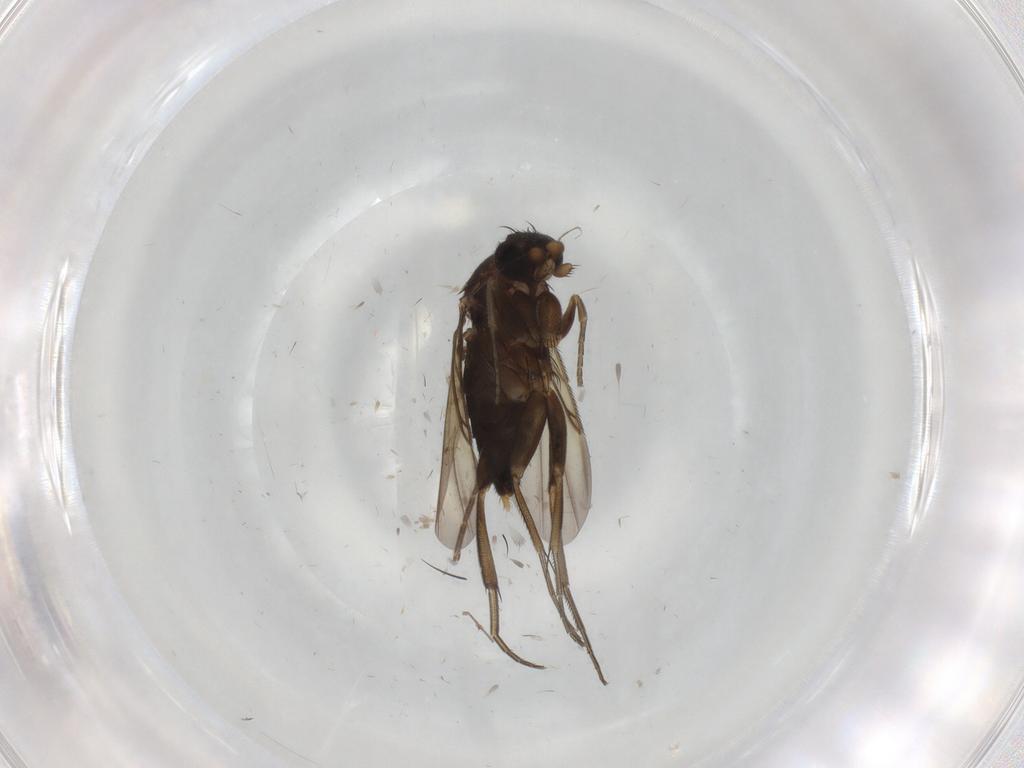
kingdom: Animalia
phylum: Arthropoda
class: Insecta
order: Diptera
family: Phoridae
